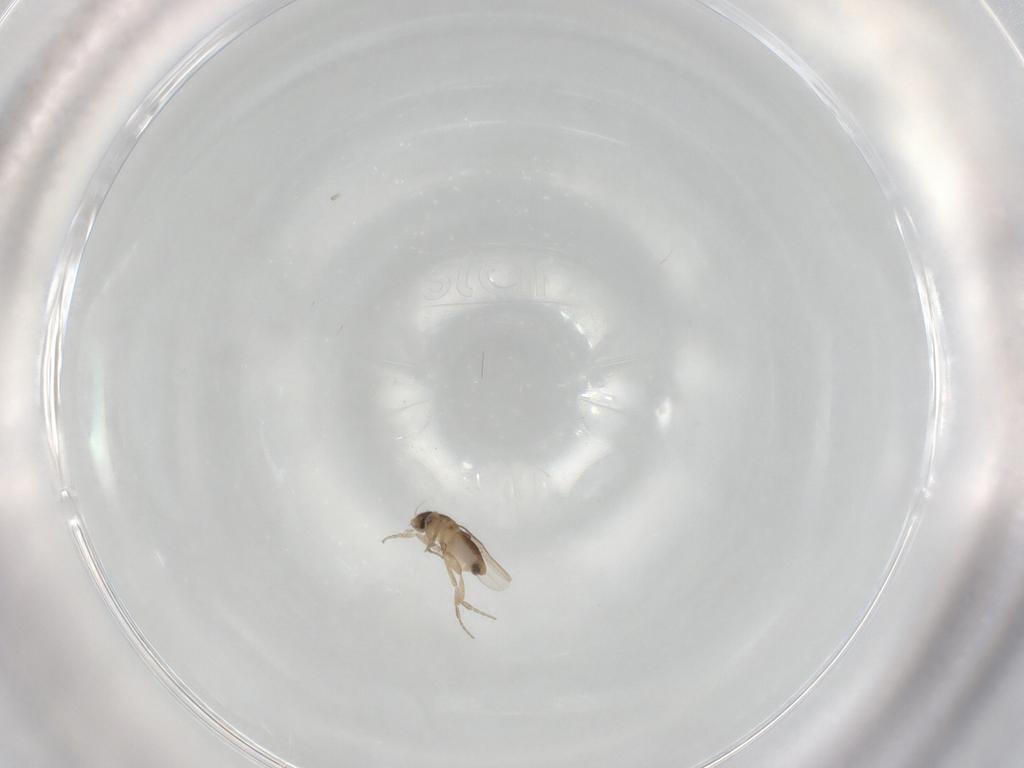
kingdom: Animalia
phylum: Arthropoda
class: Insecta
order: Diptera
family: Phoridae
